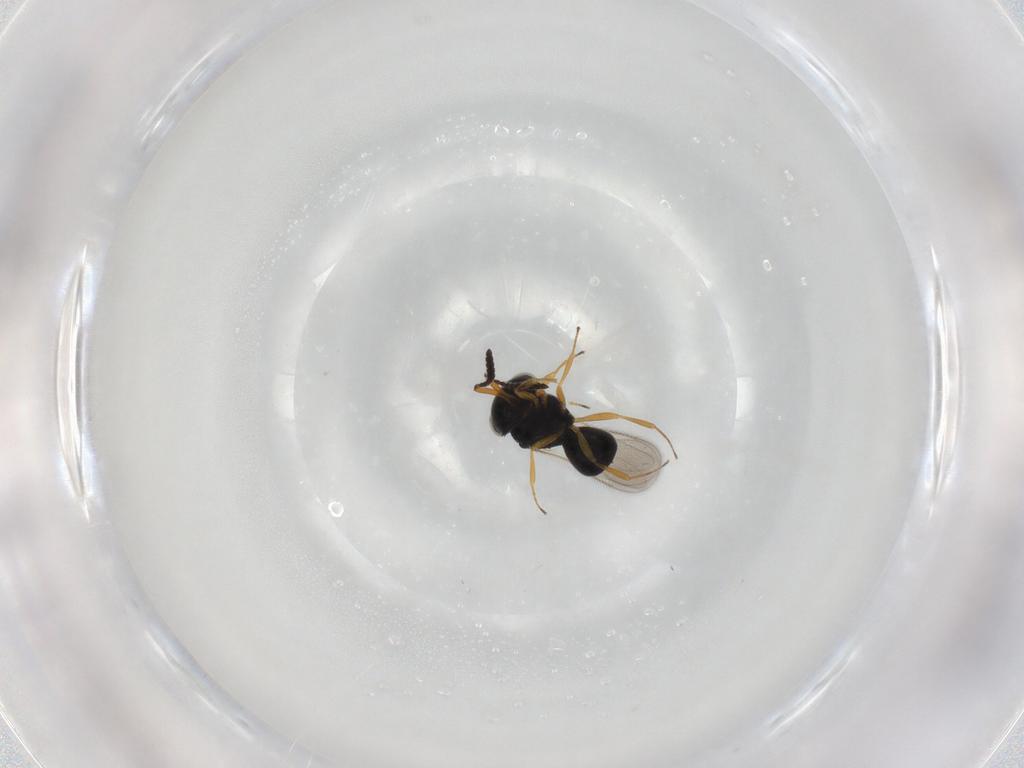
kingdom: Animalia
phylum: Arthropoda
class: Insecta
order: Hymenoptera
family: Scelionidae
